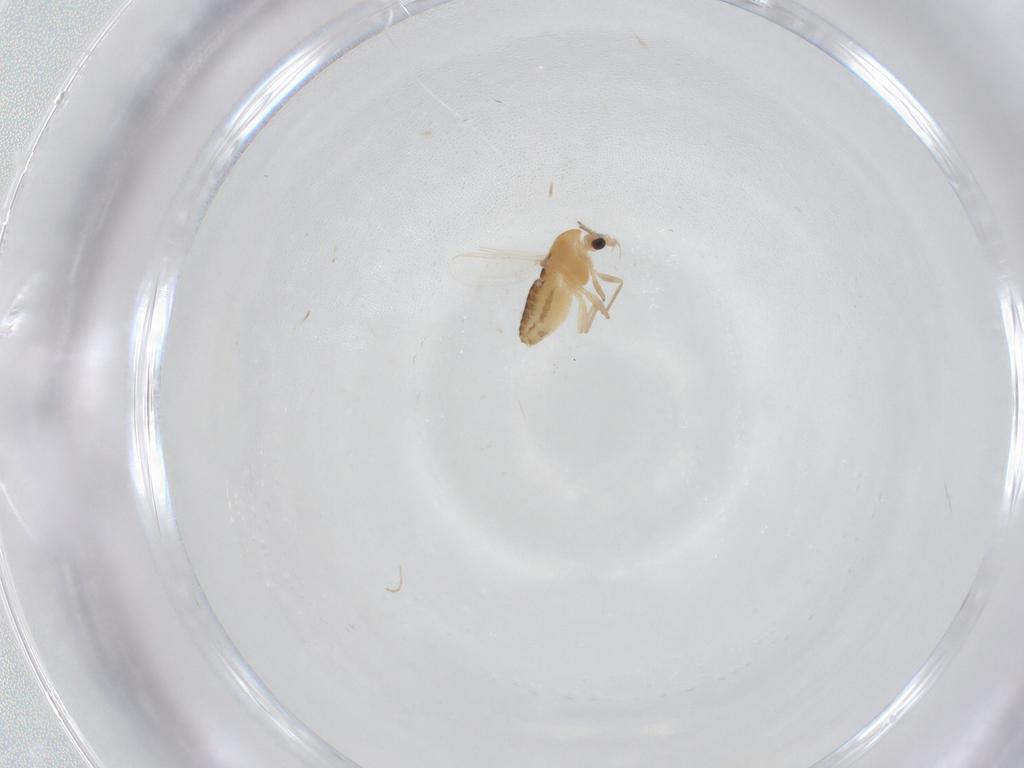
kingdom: Animalia
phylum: Arthropoda
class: Insecta
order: Diptera
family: Chironomidae
